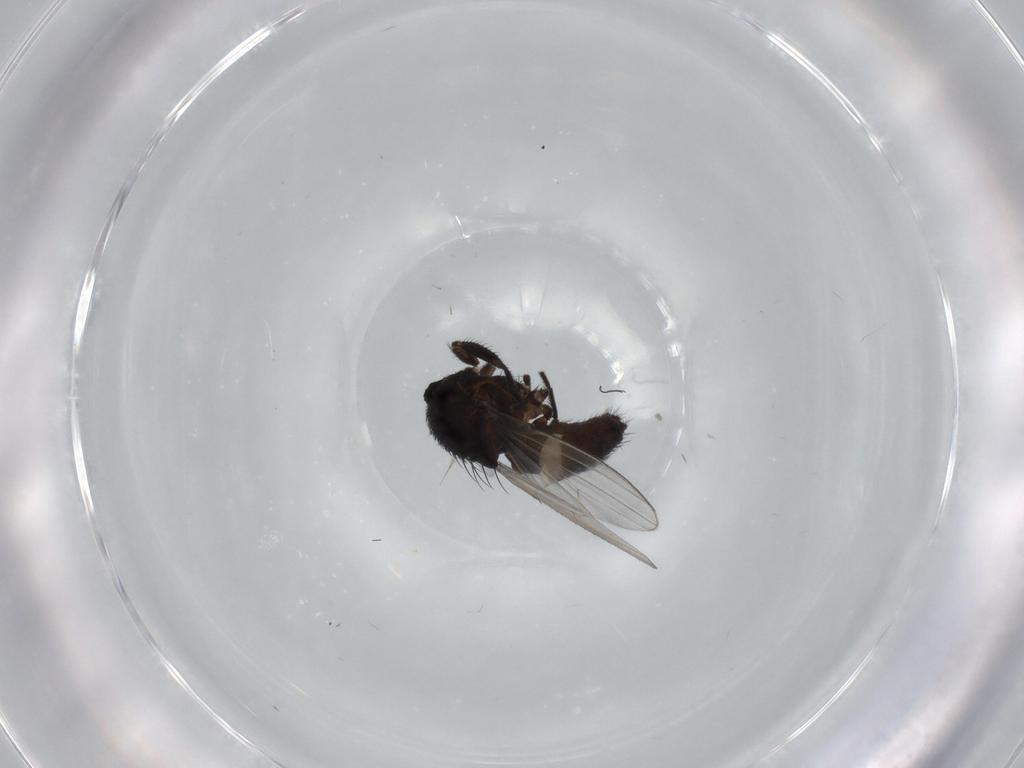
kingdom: Animalia
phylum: Arthropoda
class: Insecta
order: Diptera
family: Milichiidae
